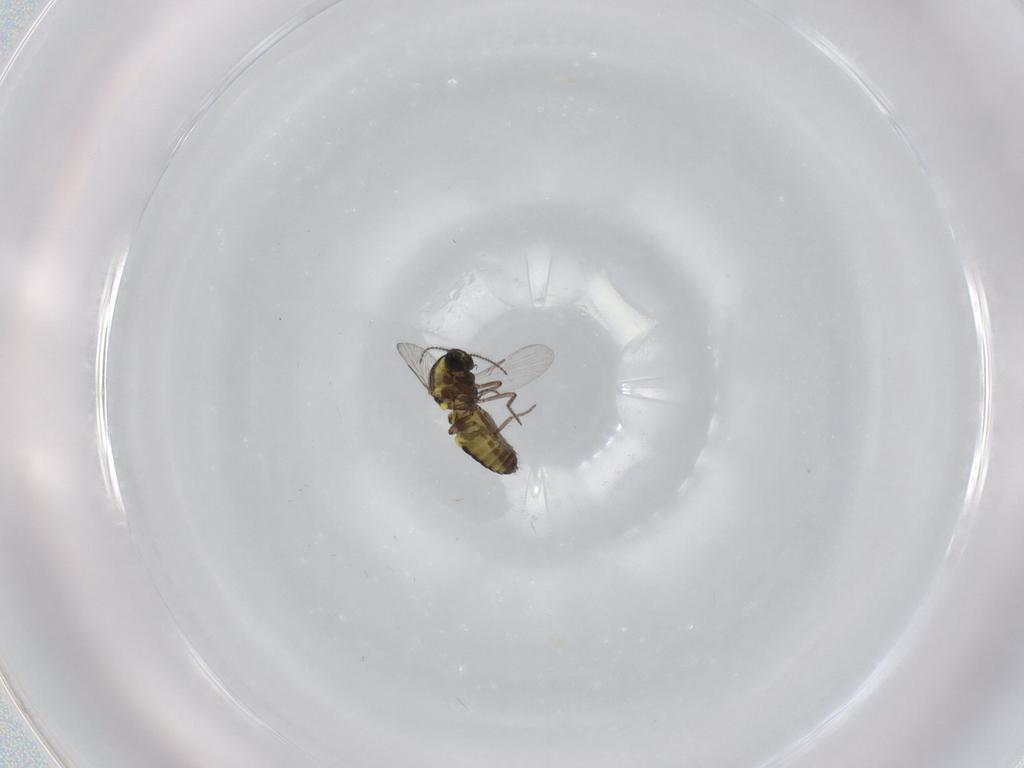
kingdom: Animalia
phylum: Arthropoda
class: Insecta
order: Diptera
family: Ceratopogonidae
